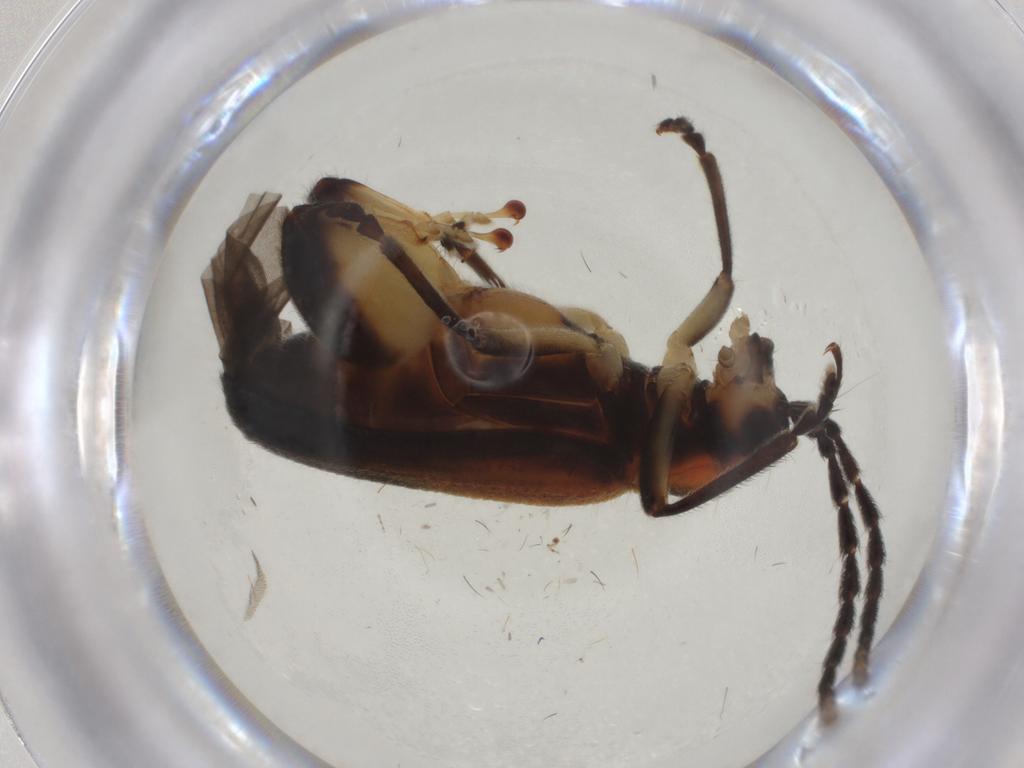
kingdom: Animalia
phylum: Arthropoda
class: Insecta
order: Coleoptera
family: Chrysomelidae
